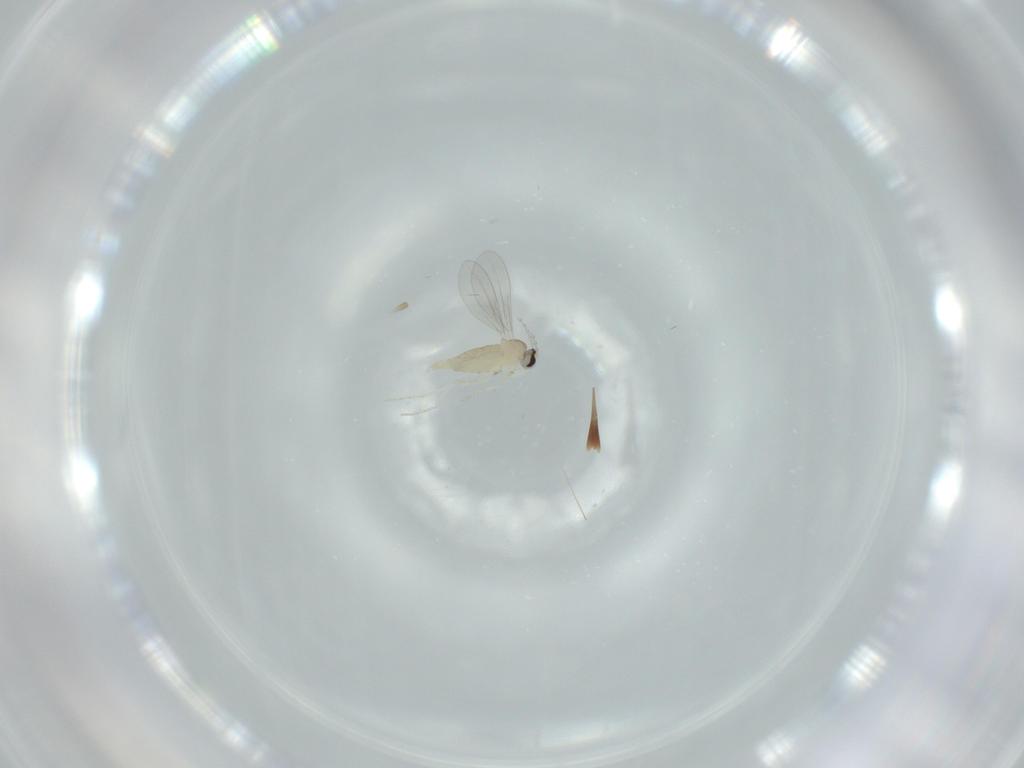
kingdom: Animalia
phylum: Arthropoda
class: Insecta
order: Diptera
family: Cecidomyiidae
